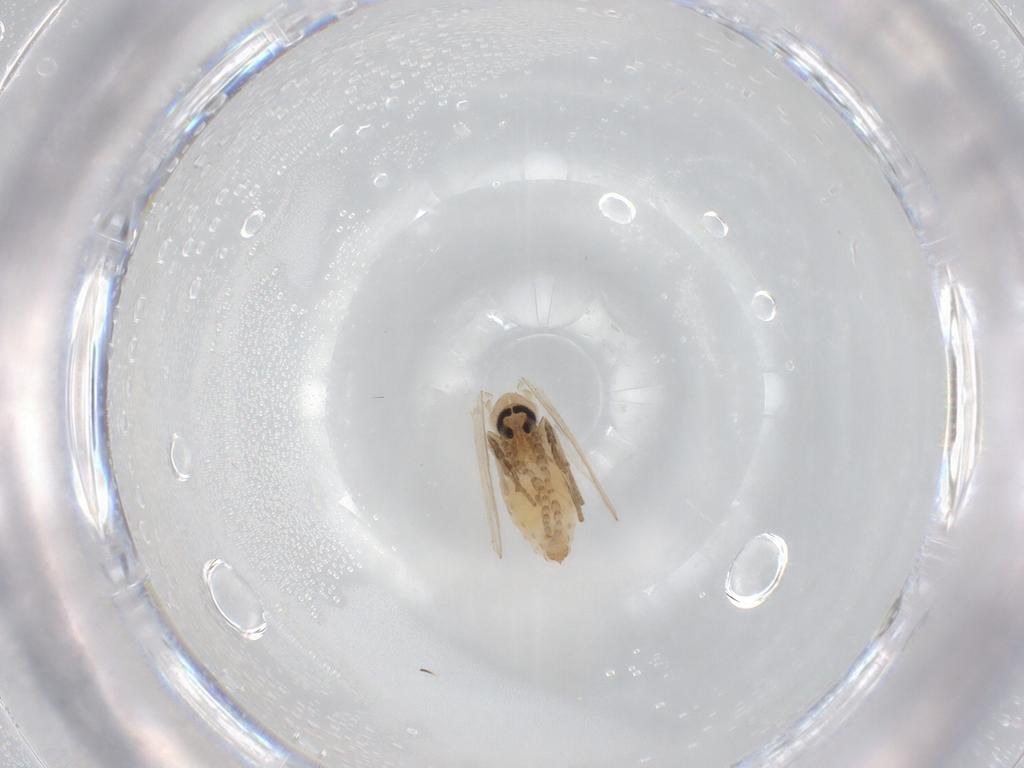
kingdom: Animalia
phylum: Arthropoda
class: Insecta
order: Diptera
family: Psychodidae
